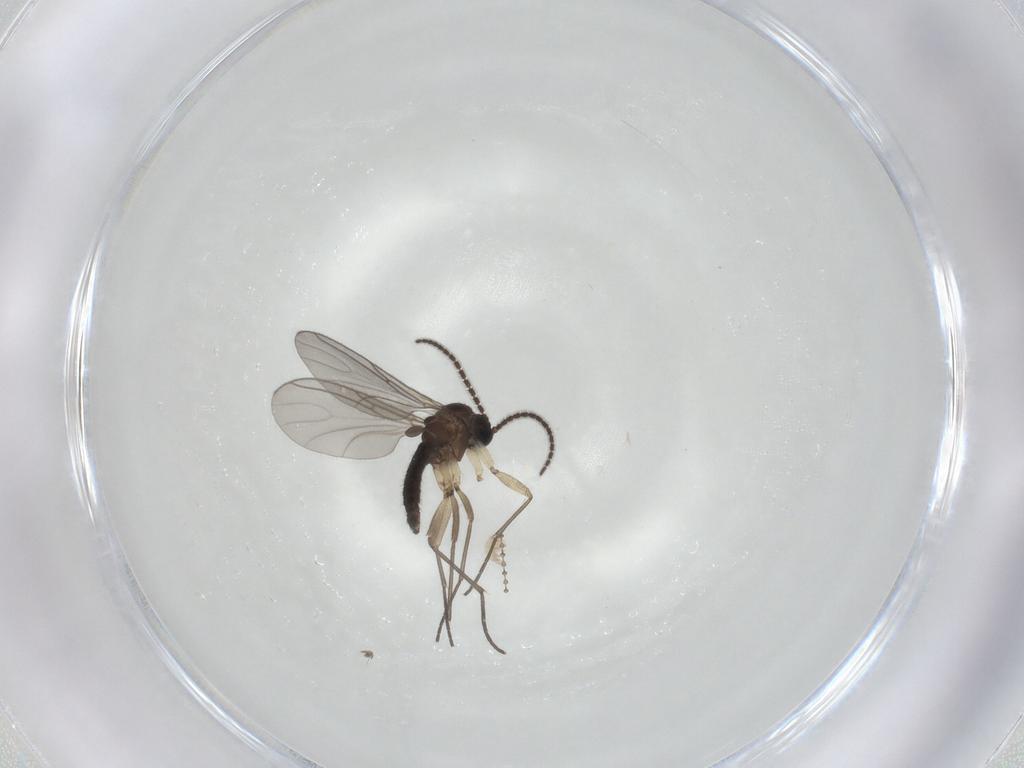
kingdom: Animalia
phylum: Arthropoda
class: Insecta
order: Diptera
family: Sciaridae
